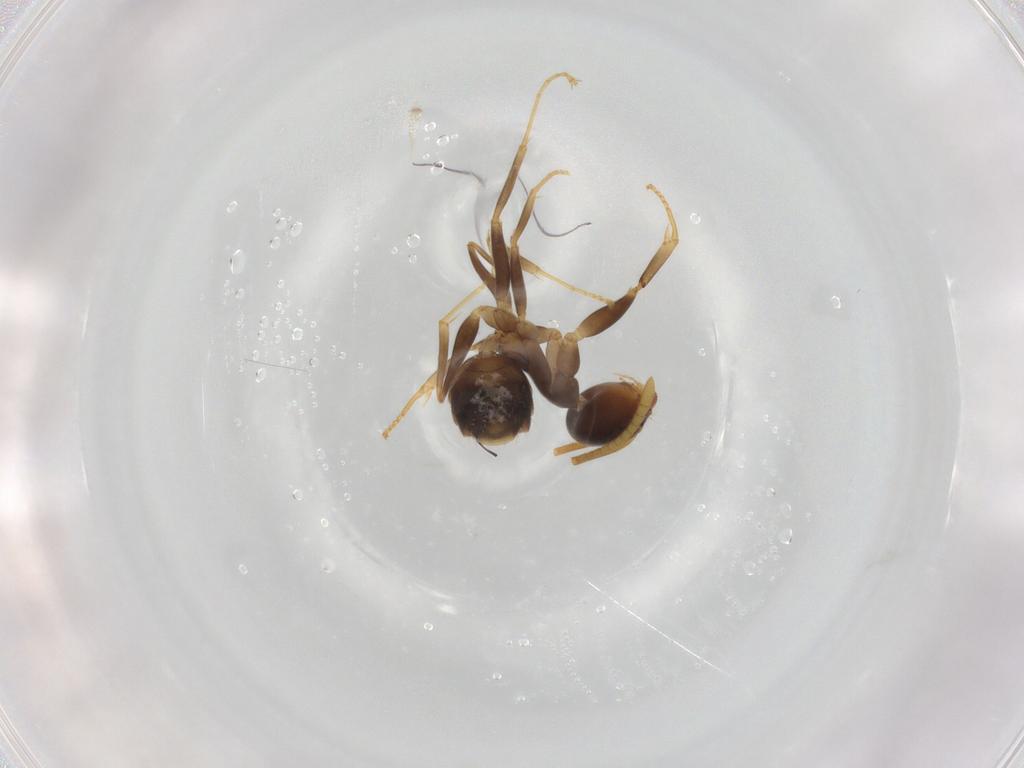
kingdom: Animalia
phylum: Arthropoda
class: Insecta
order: Hymenoptera
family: Formicidae
